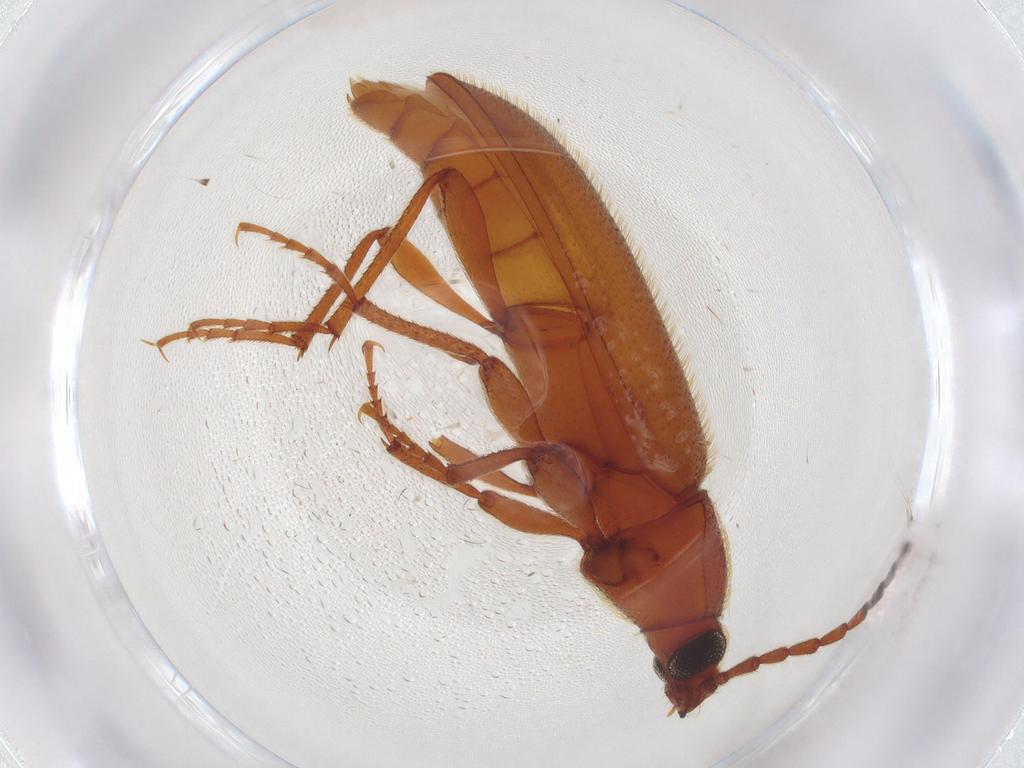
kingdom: Animalia
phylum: Arthropoda
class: Insecta
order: Coleoptera
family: Tenebrionidae
